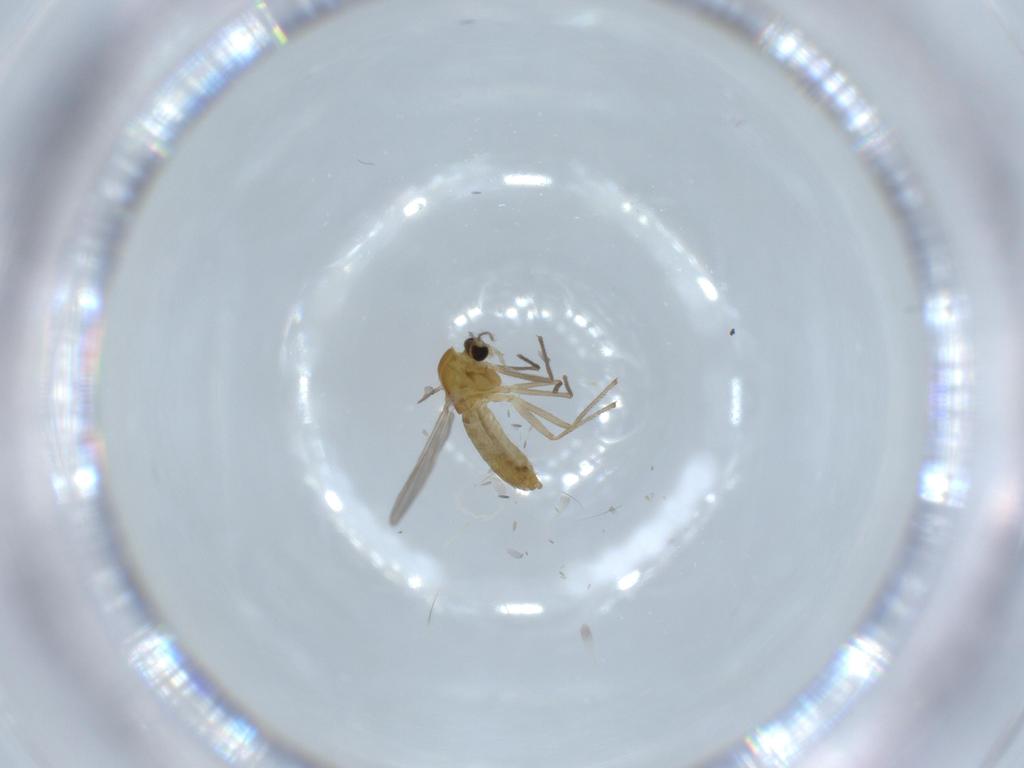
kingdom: Animalia
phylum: Arthropoda
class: Insecta
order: Diptera
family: Chironomidae
